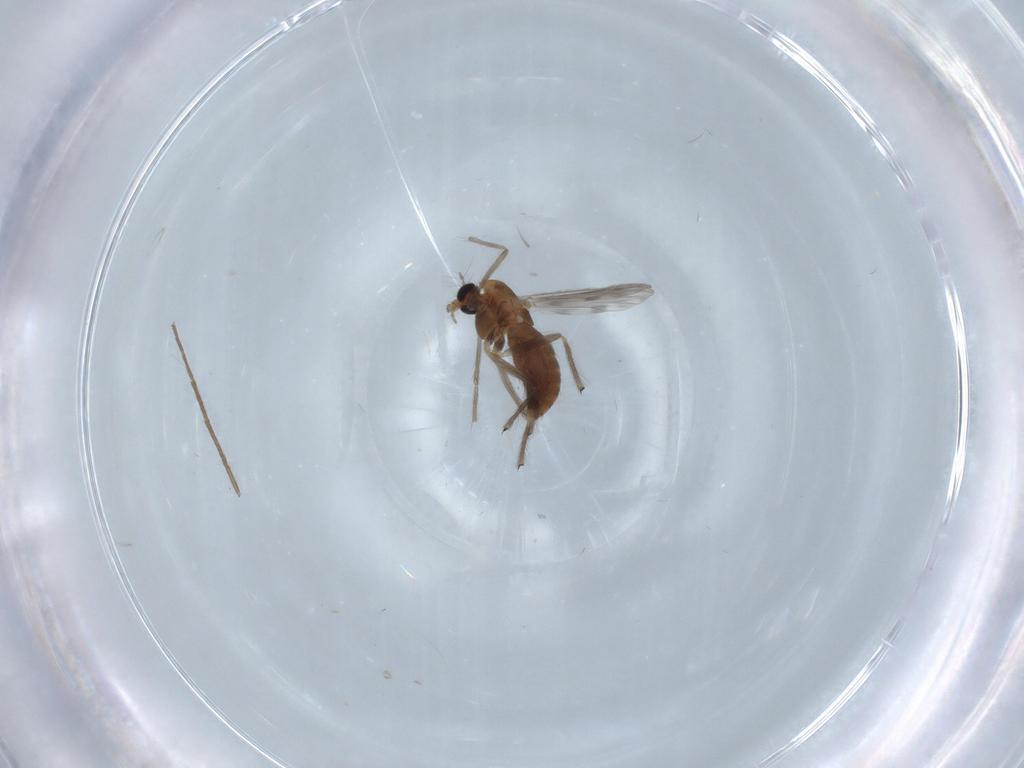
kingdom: Animalia
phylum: Arthropoda
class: Insecta
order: Diptera
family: Chironomidae
